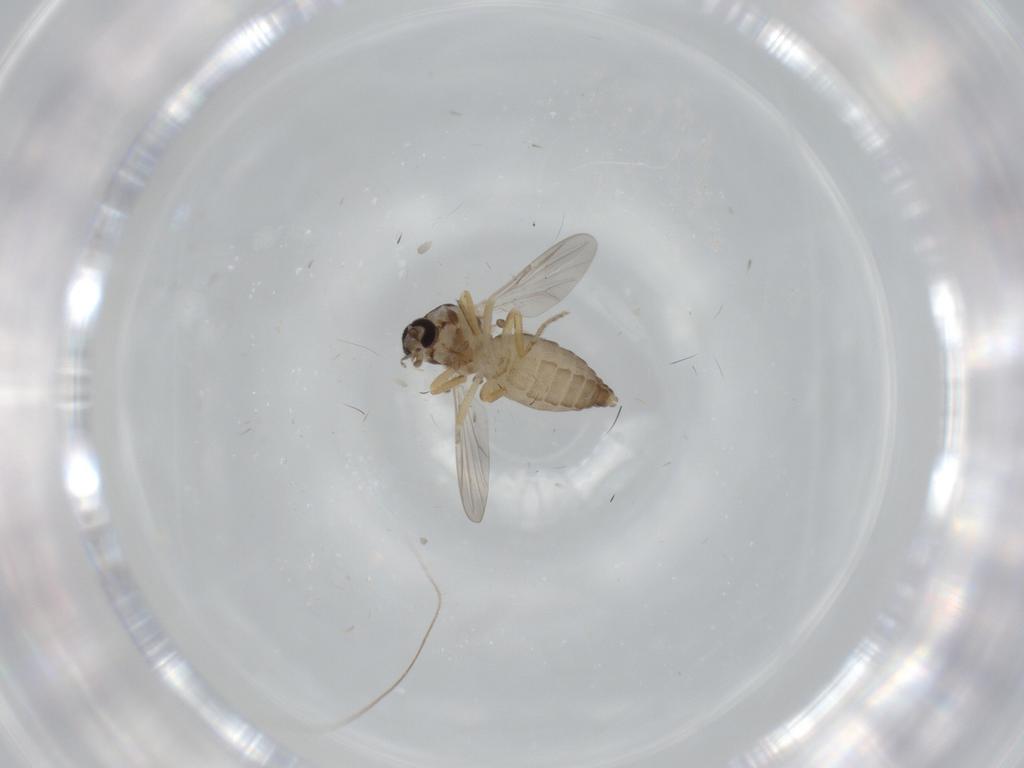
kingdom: Animalia
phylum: Arthropoda
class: Insecta
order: Diptera
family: Ceratopogonidae
